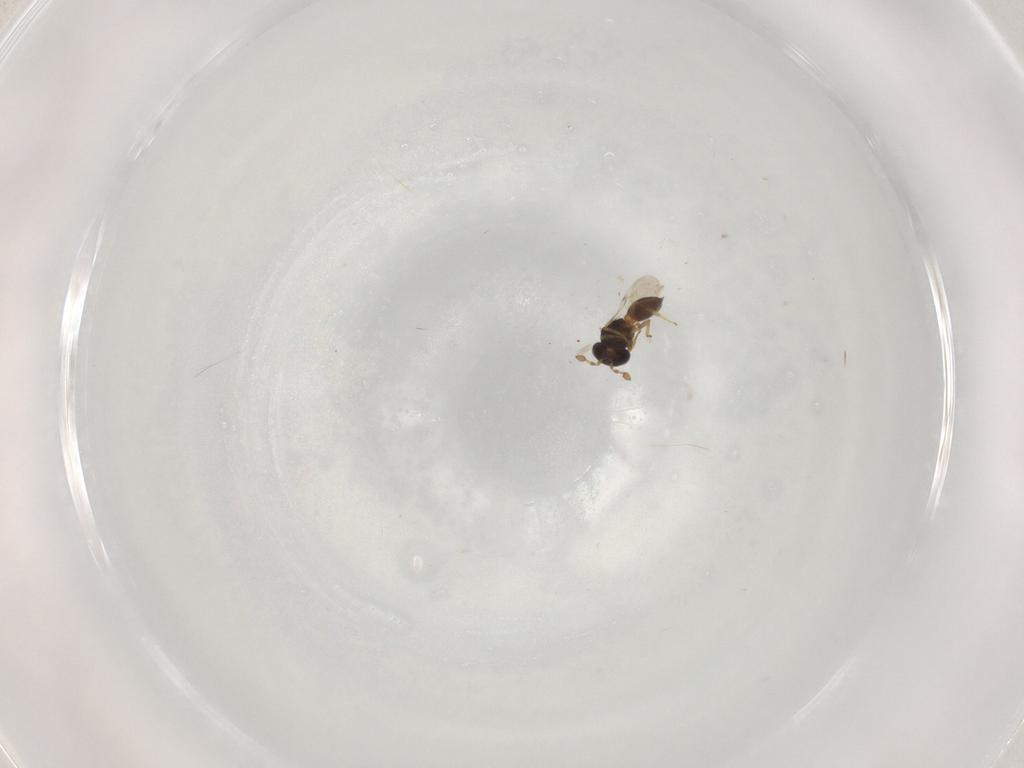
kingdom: Animalia
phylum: Arthropoda
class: Insecta
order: Hymenoptera
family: Scelionidae
